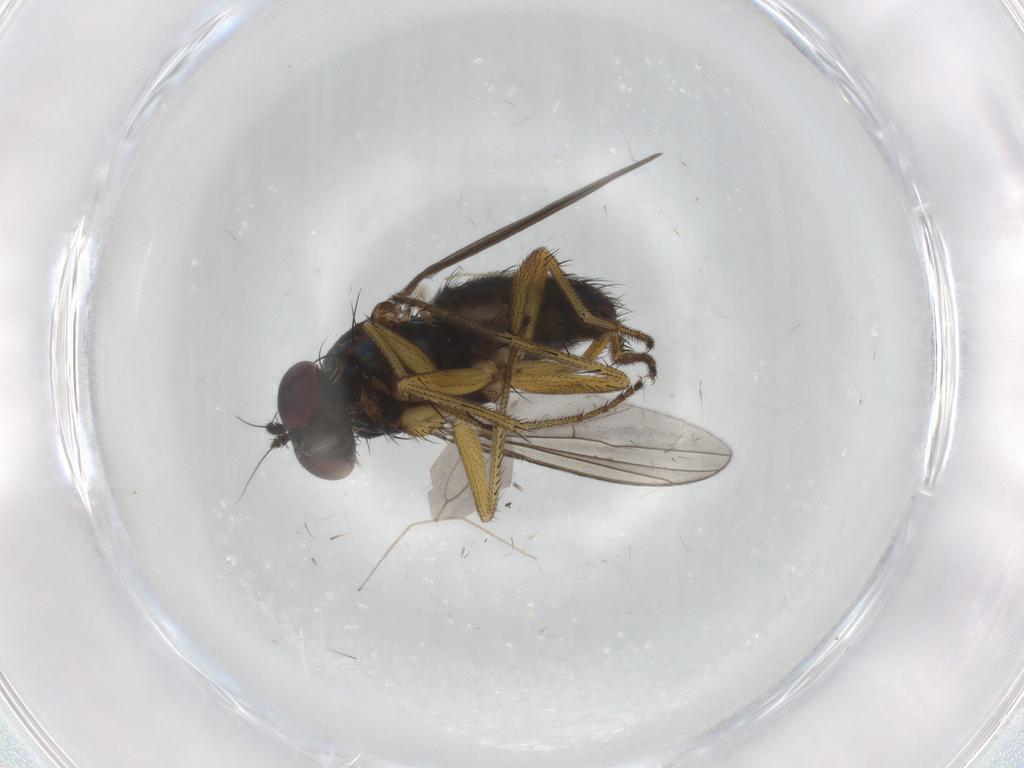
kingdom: Animalia
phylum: Arthropoda
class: Insecta
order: Diptera
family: Dolichopodidae
